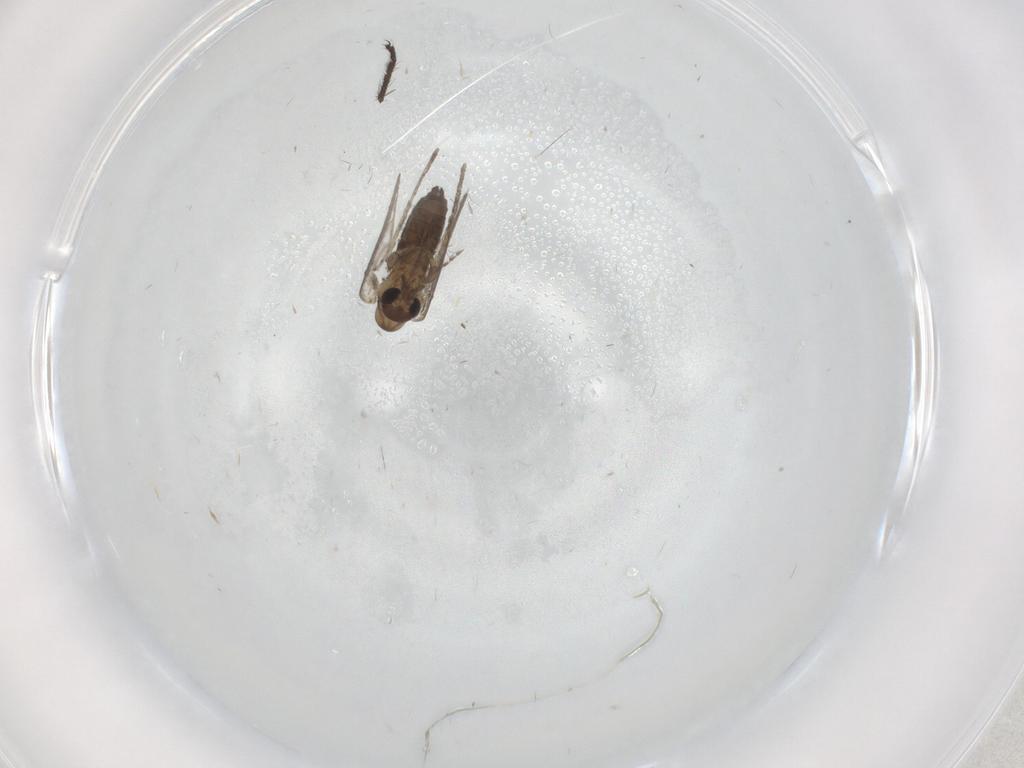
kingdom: Animalia
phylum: Arthropoda
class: Insecta
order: Diptera
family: Psychodidae
